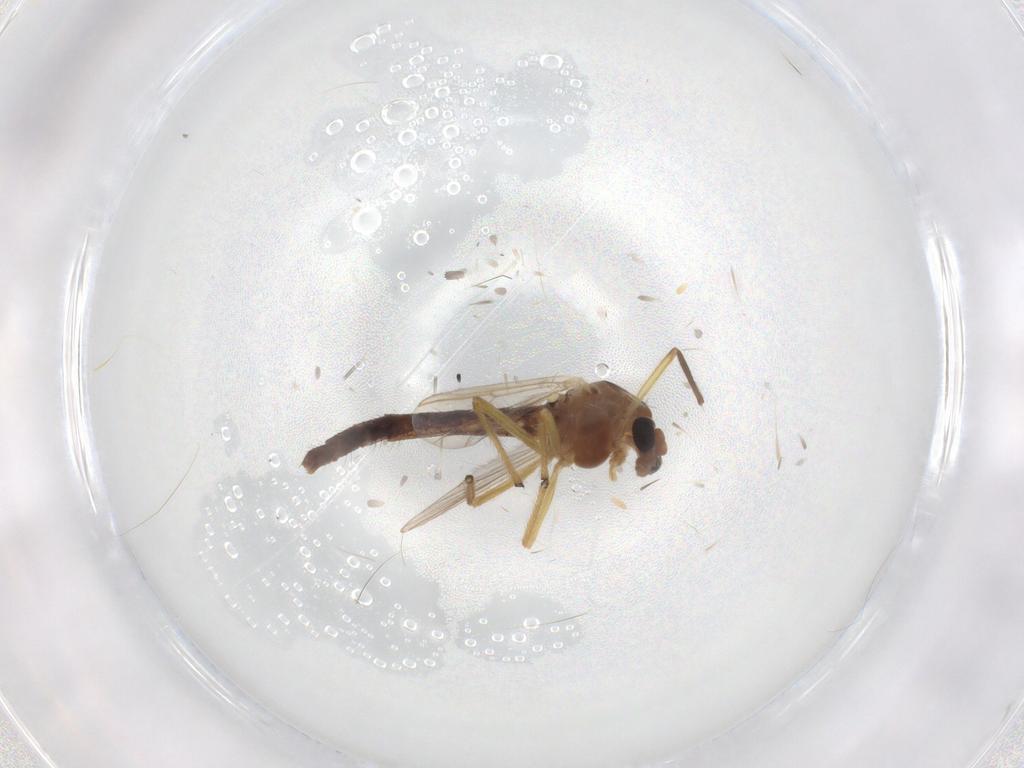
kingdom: Animalia
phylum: Arthropoda
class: Insecta
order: Diptera
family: Chironomidae
